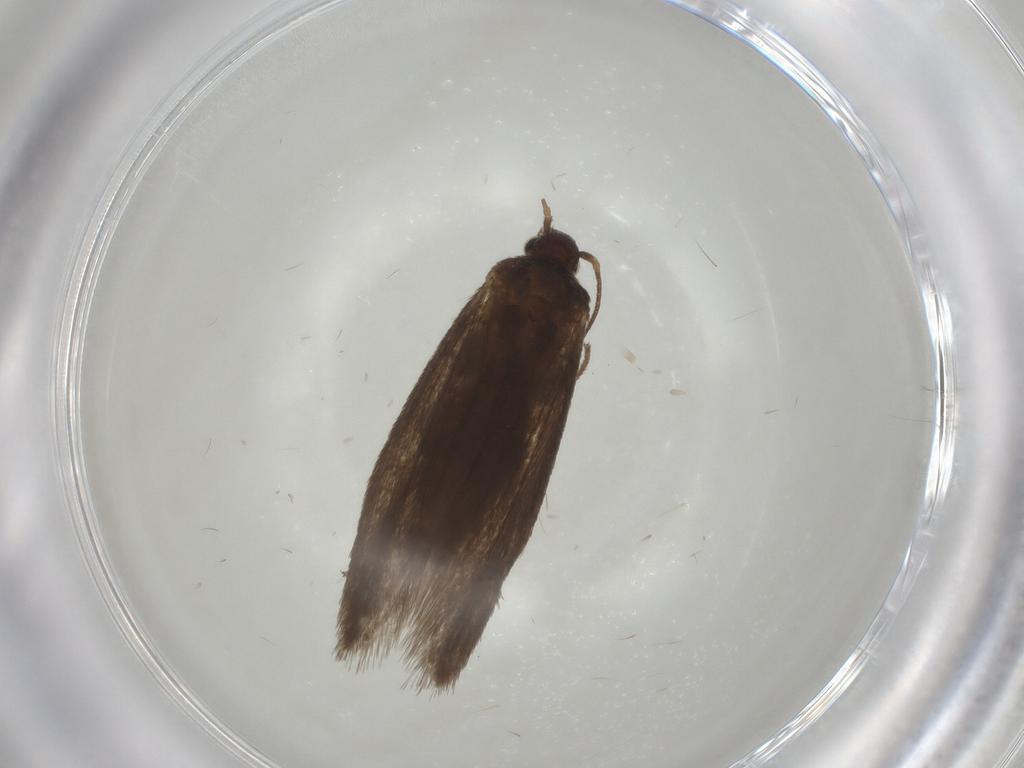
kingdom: Animalia
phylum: Arthropoda
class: Insecta
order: Lepidoptera
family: Limacodidae
